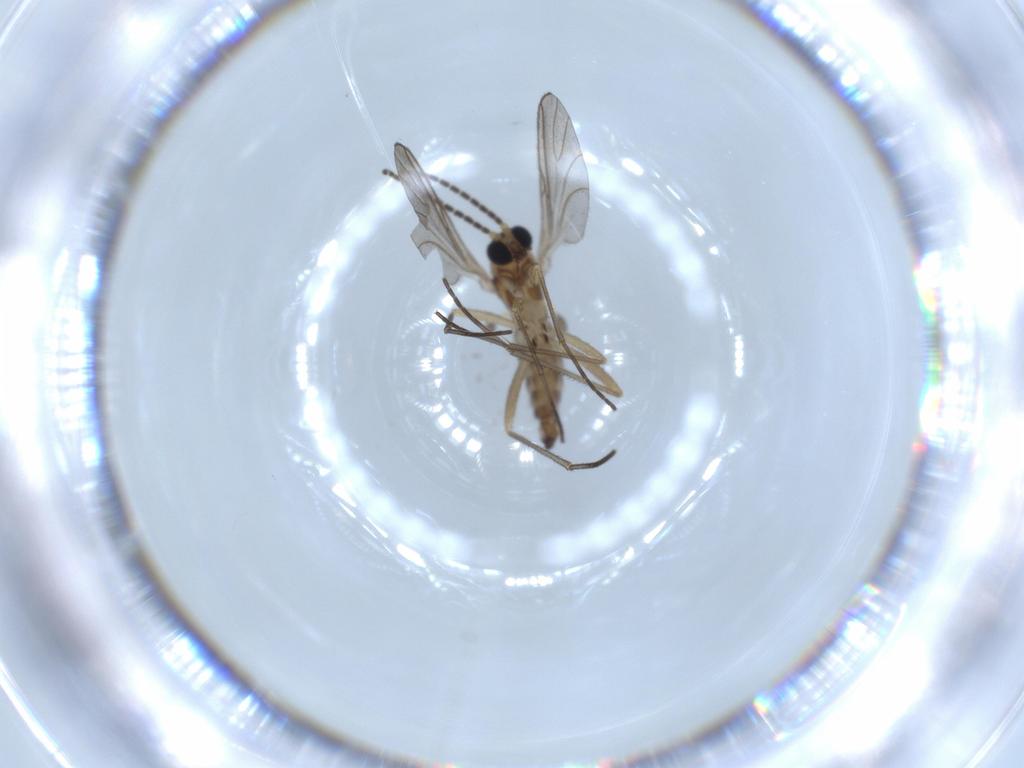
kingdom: Animalia
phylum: Arthropoda
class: Insecta
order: Diptera
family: Sciaridae
